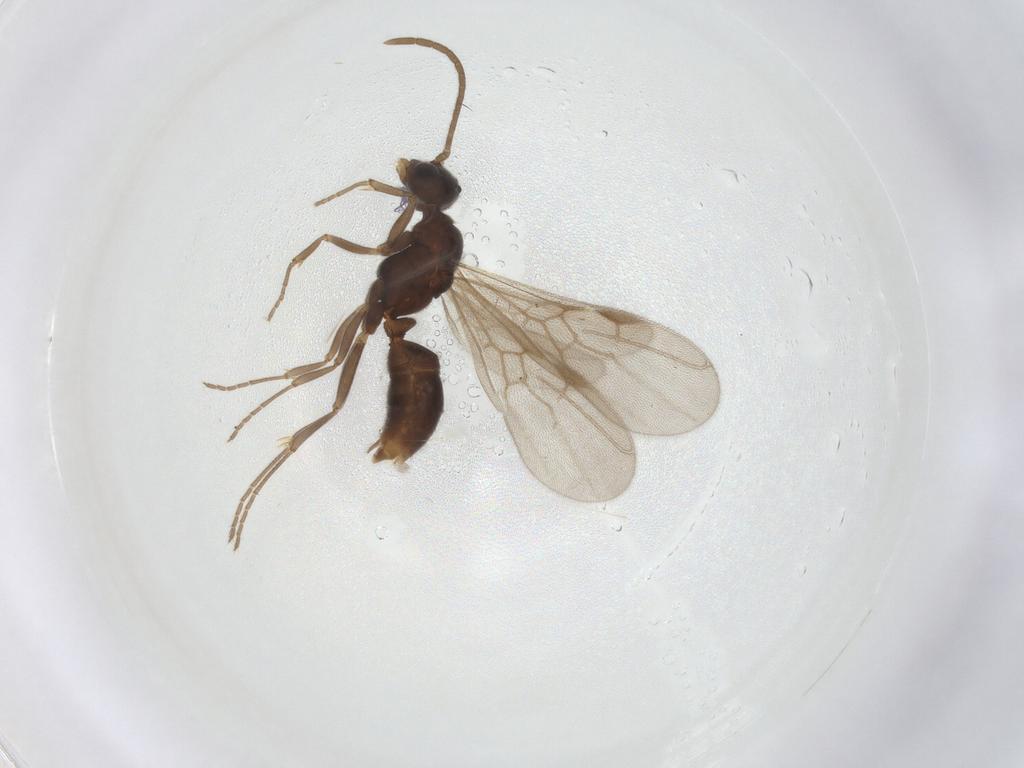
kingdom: Animalia
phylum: Arthropoda
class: Insecta
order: Hymenoptera
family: Formicidae
